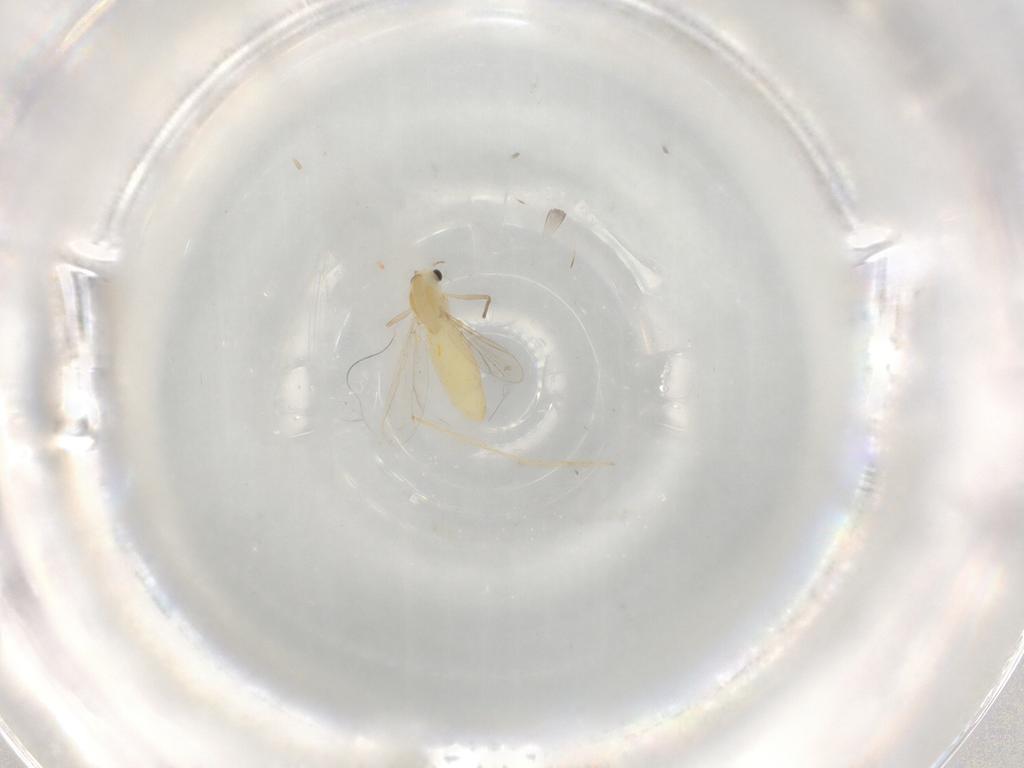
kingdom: Animalia
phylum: Arthropoda
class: Insecta
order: Diptera
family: Chironomidae
